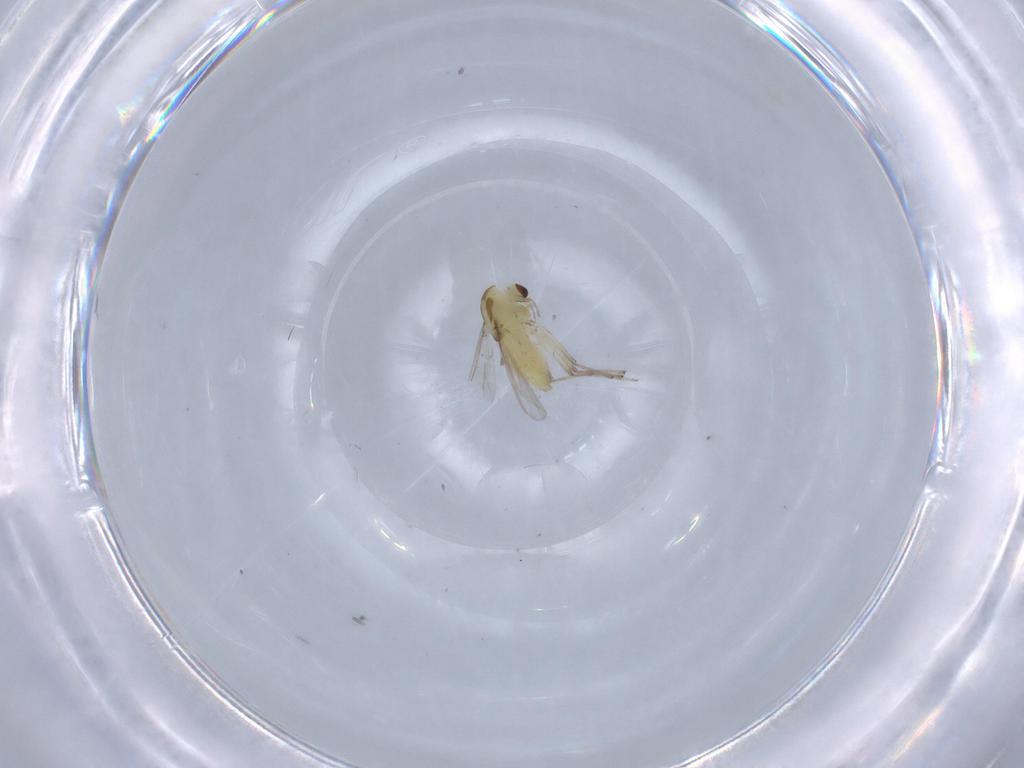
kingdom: Animalia
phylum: Arthropoda
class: Insecta
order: Diptera
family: Chironomidae
